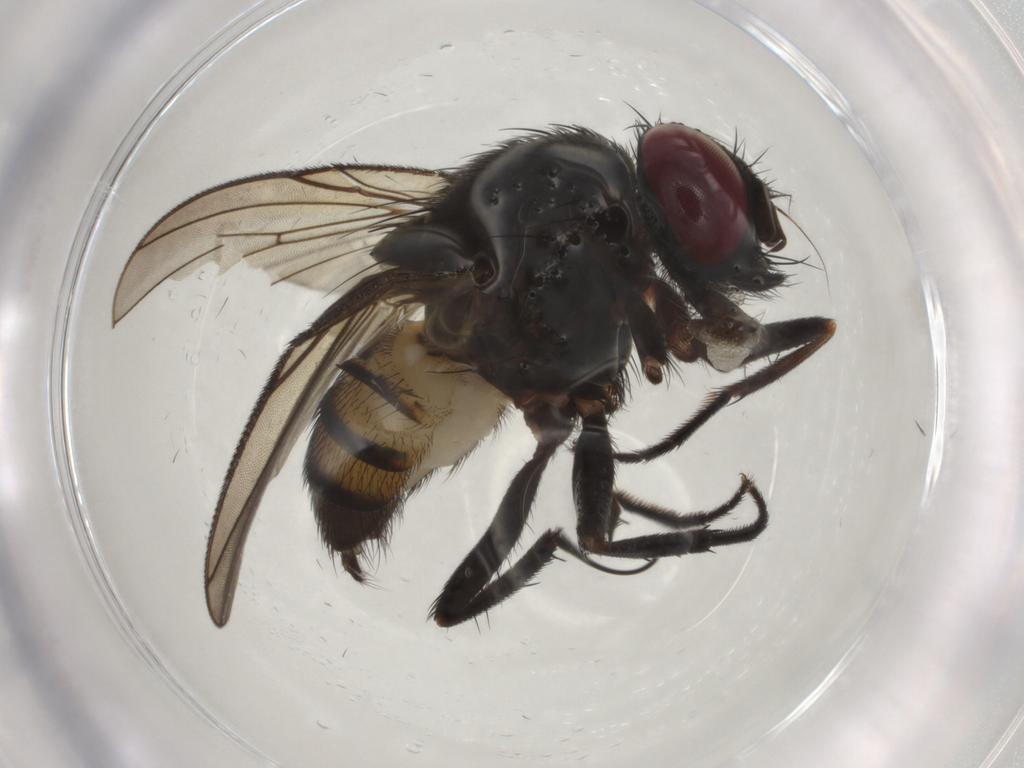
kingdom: Animalia
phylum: Arthropoda
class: Insecta
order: Diptera
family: Muscidae
